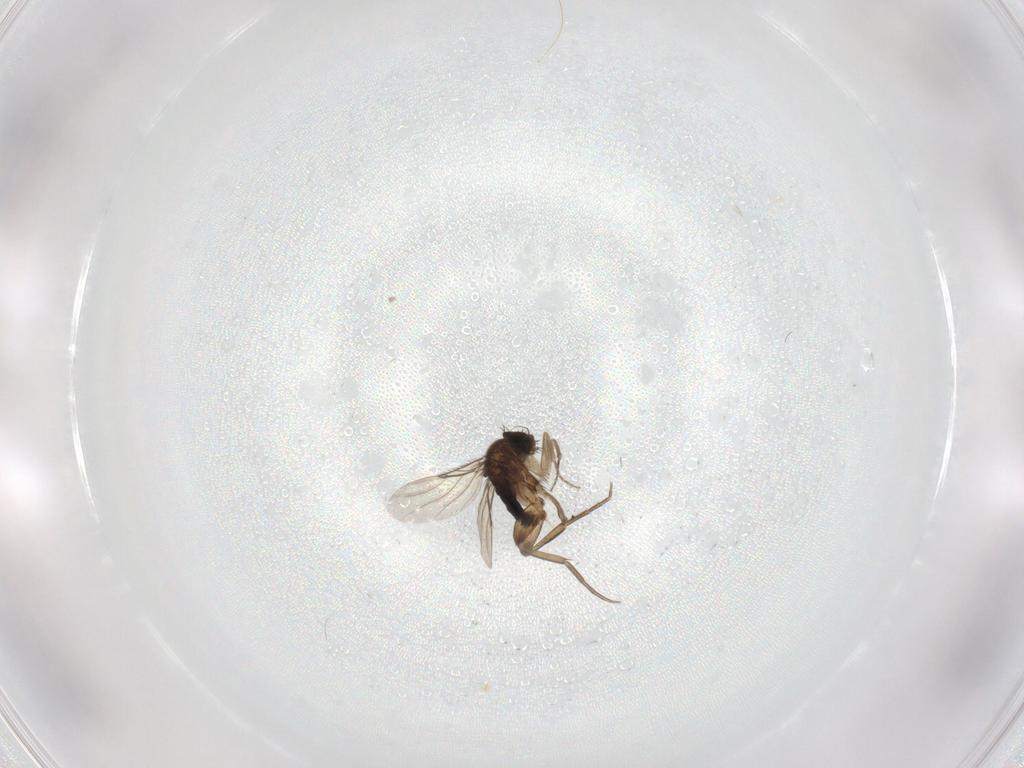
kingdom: Animalia
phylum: Arthropoda
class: Insecta
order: Diptera
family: Phoridae
